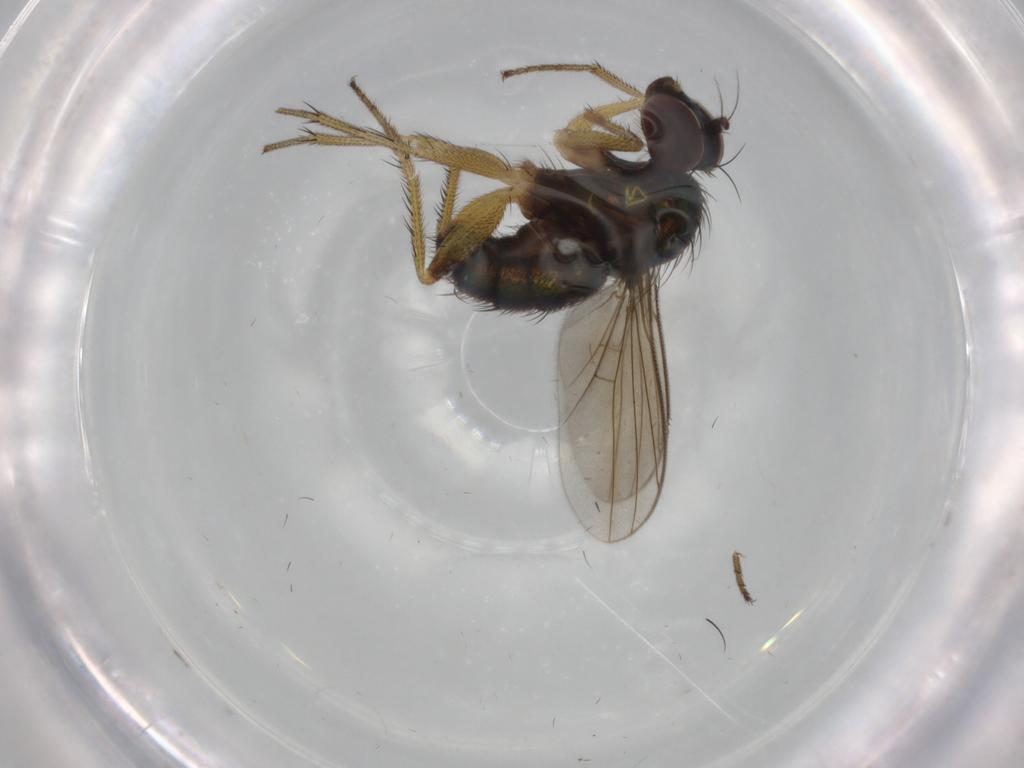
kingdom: Animalia
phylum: Arthropoda
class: Insecta
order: Diptera
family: Dolichopodidae
